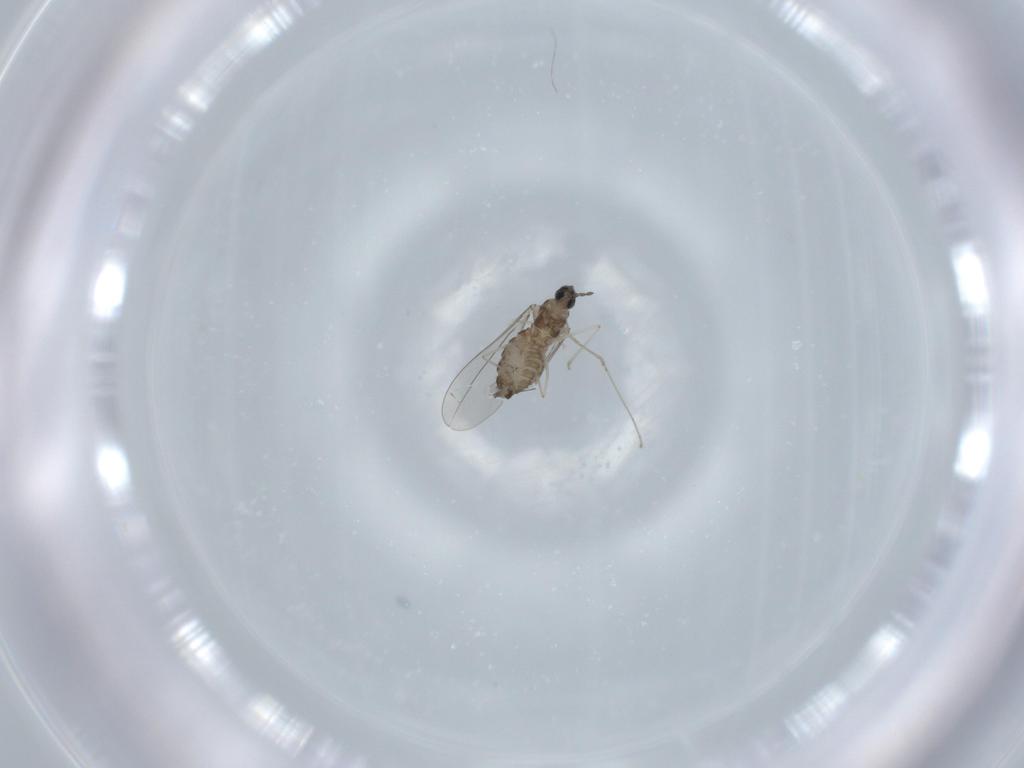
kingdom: Animalia
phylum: Arthropoda
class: Insecta
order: Diptera
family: Cecidomyiidae
